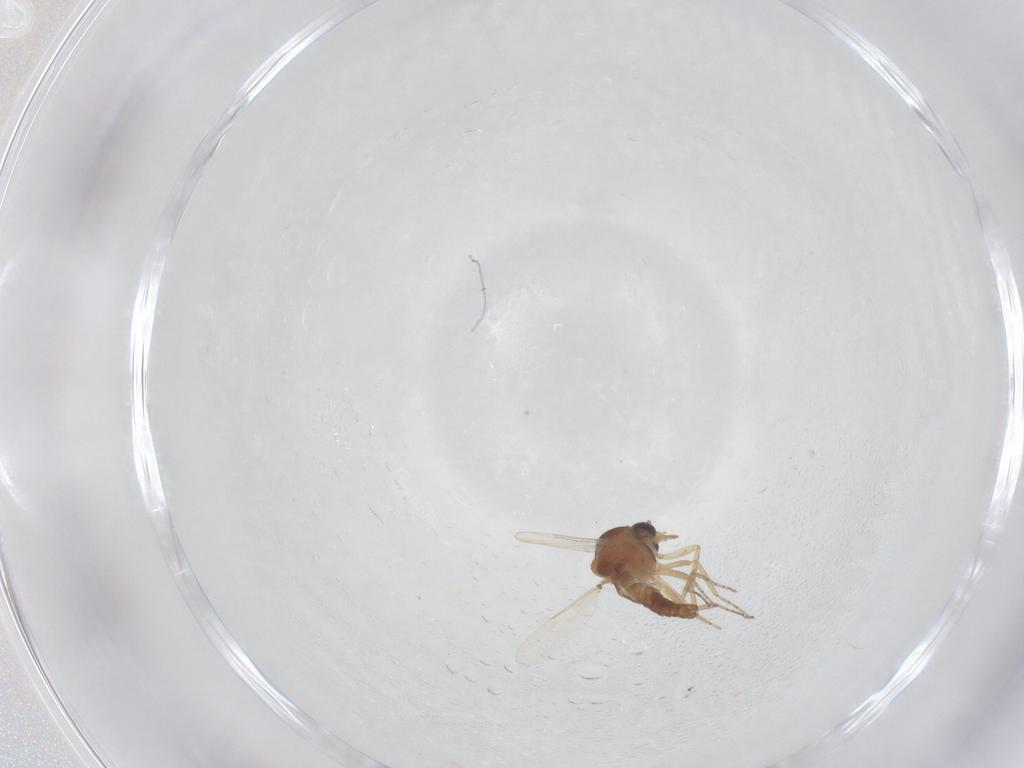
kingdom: Animalia
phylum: Arthropoda
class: Insecta
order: Diptera
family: Ceratopogonidae
